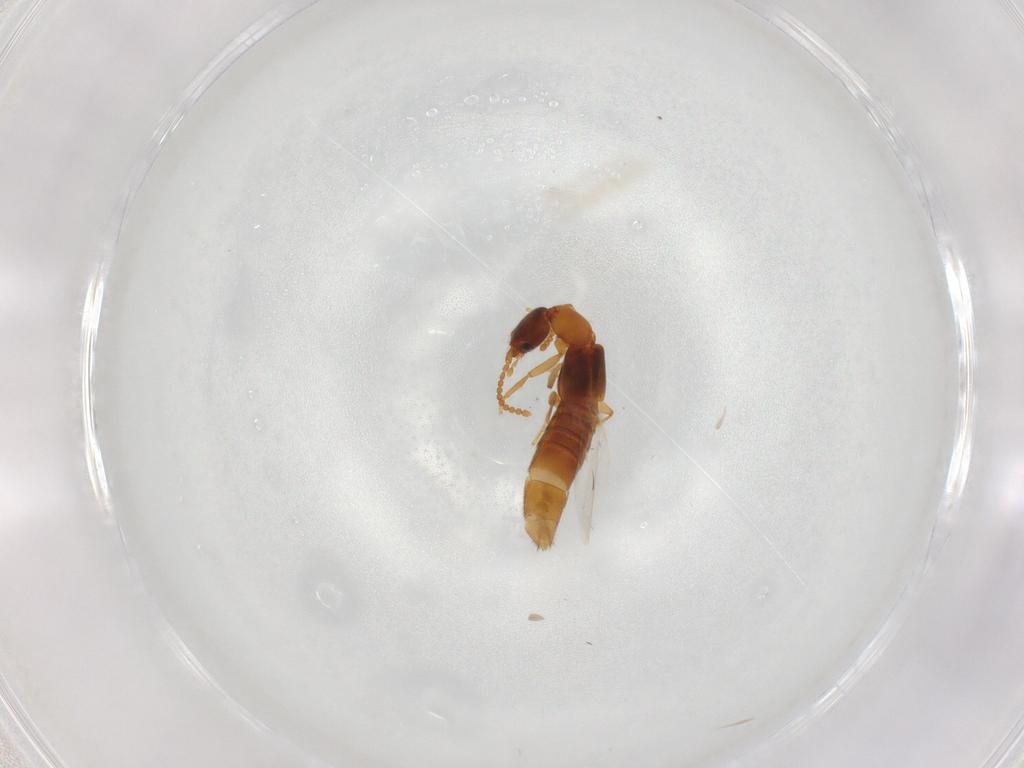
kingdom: Animalia
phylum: Arthropoda
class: Insecta
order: Coleoptera
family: Staphylinidae
